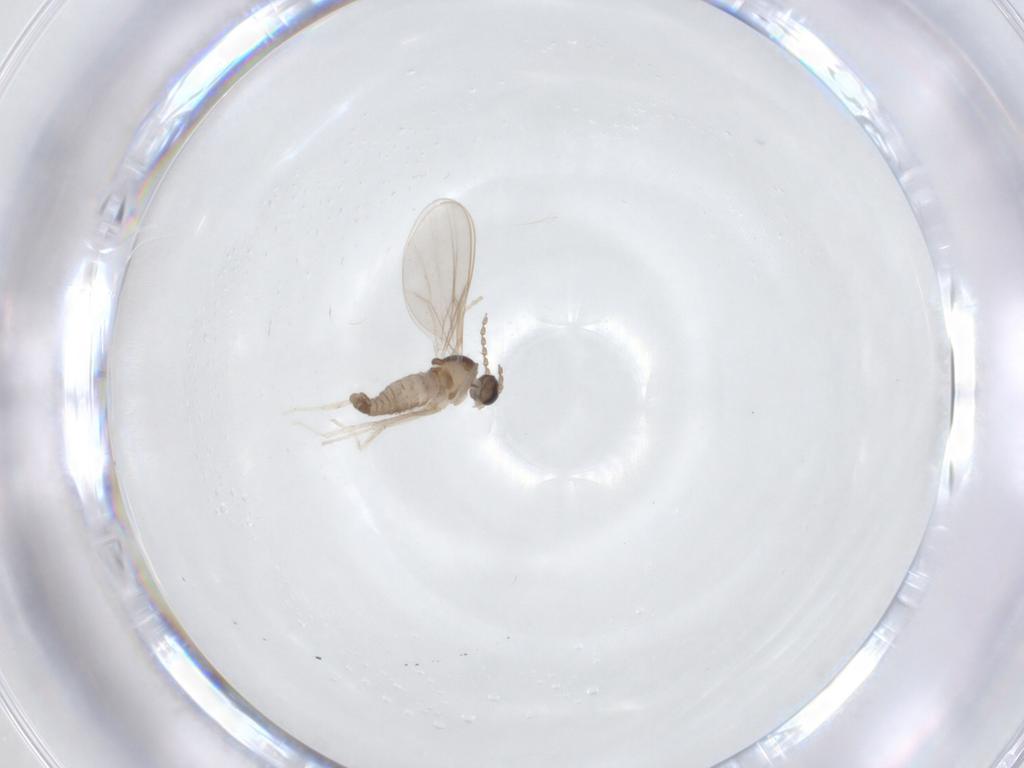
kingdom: Animalia
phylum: Arthropoda
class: Insecta
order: Diptera
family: Cecidomyiidae
